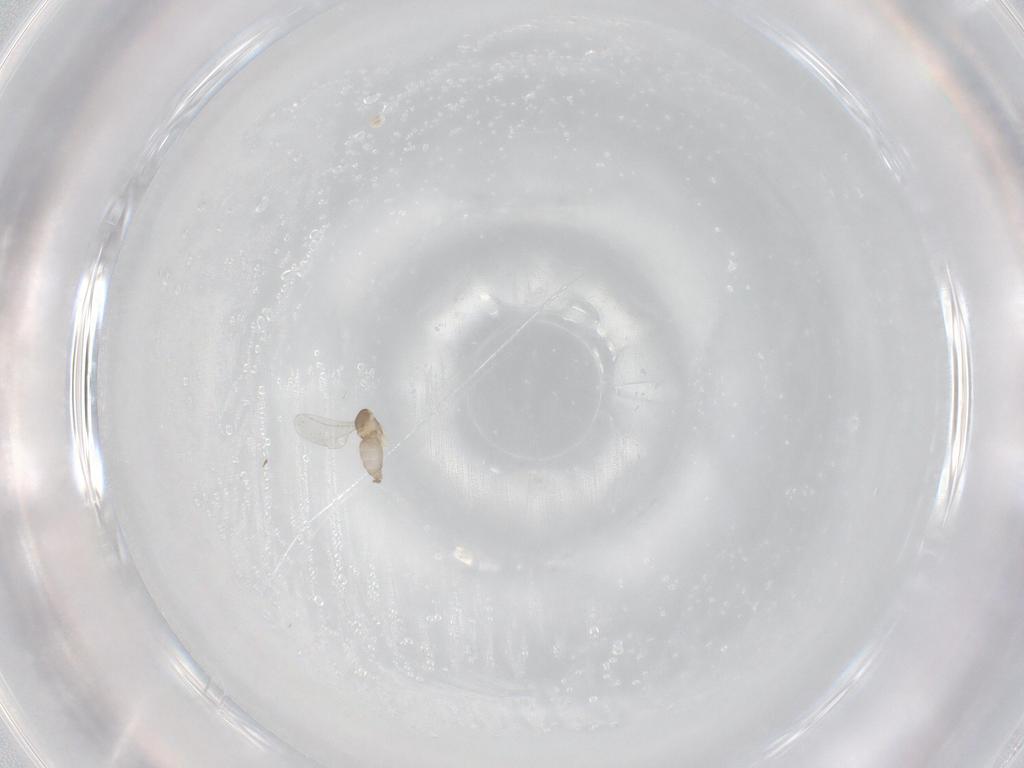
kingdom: Animalia
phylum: Arthropoda
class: Insecta
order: Diptera
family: Cecidomyiidae
